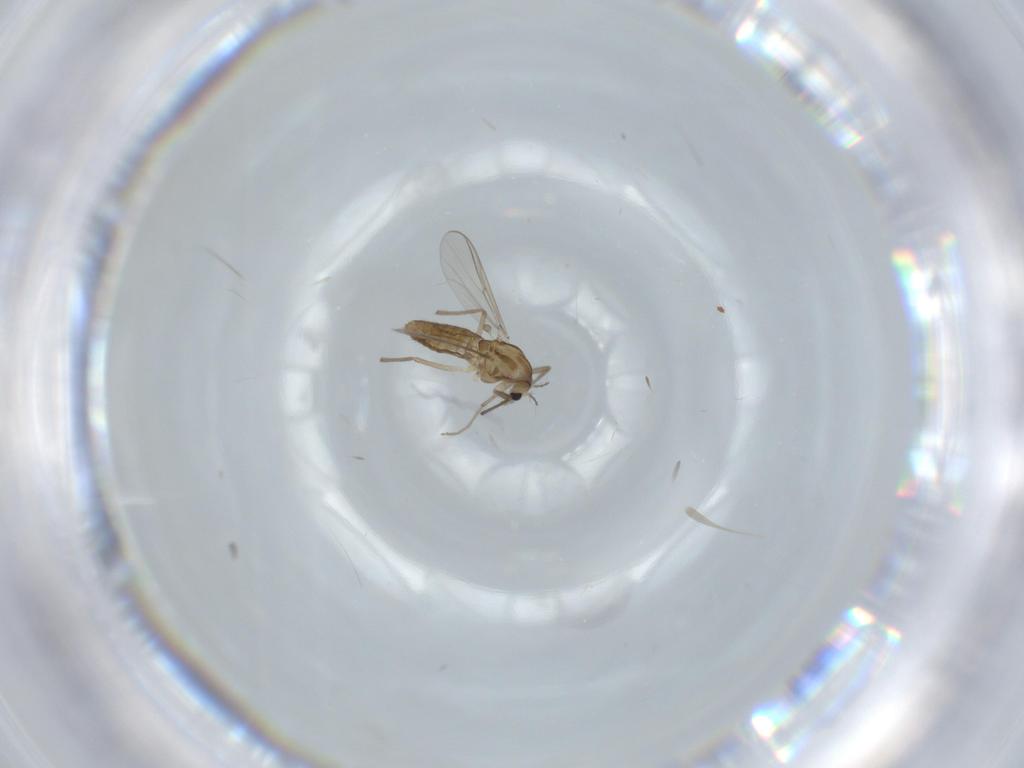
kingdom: Animalia
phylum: Arthropoda
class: Insecta
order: Diptera
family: Chironomidae
